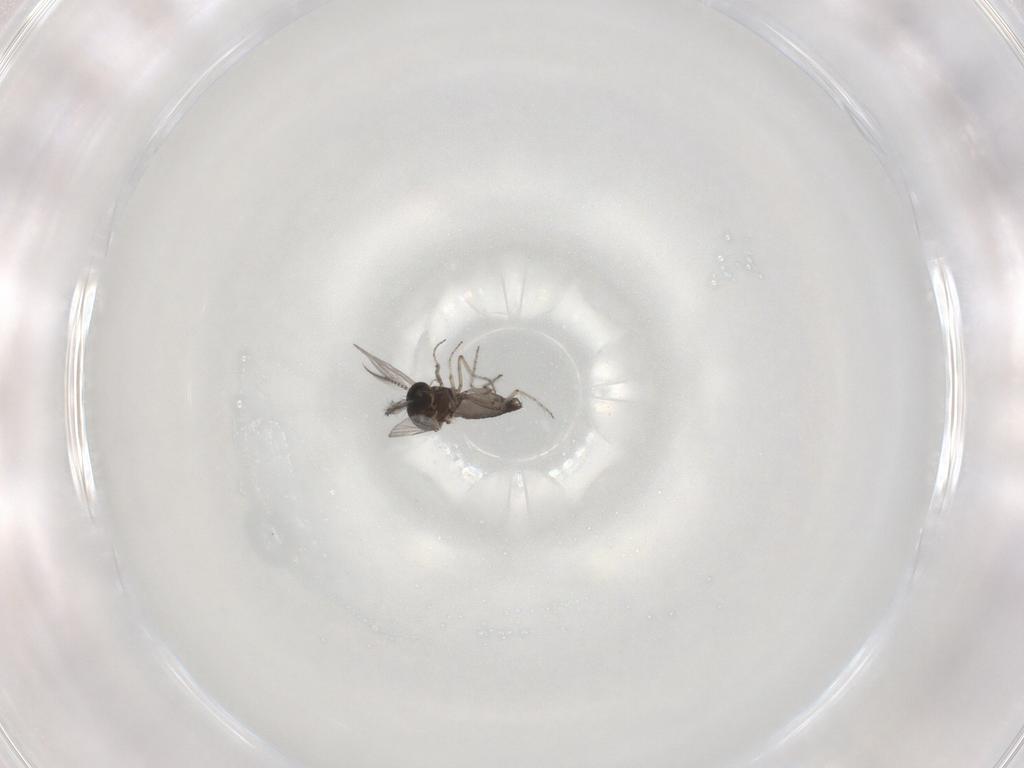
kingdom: Animalia
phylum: Arthropoda
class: Insecta
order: Diptera
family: Ceratopogonidae
